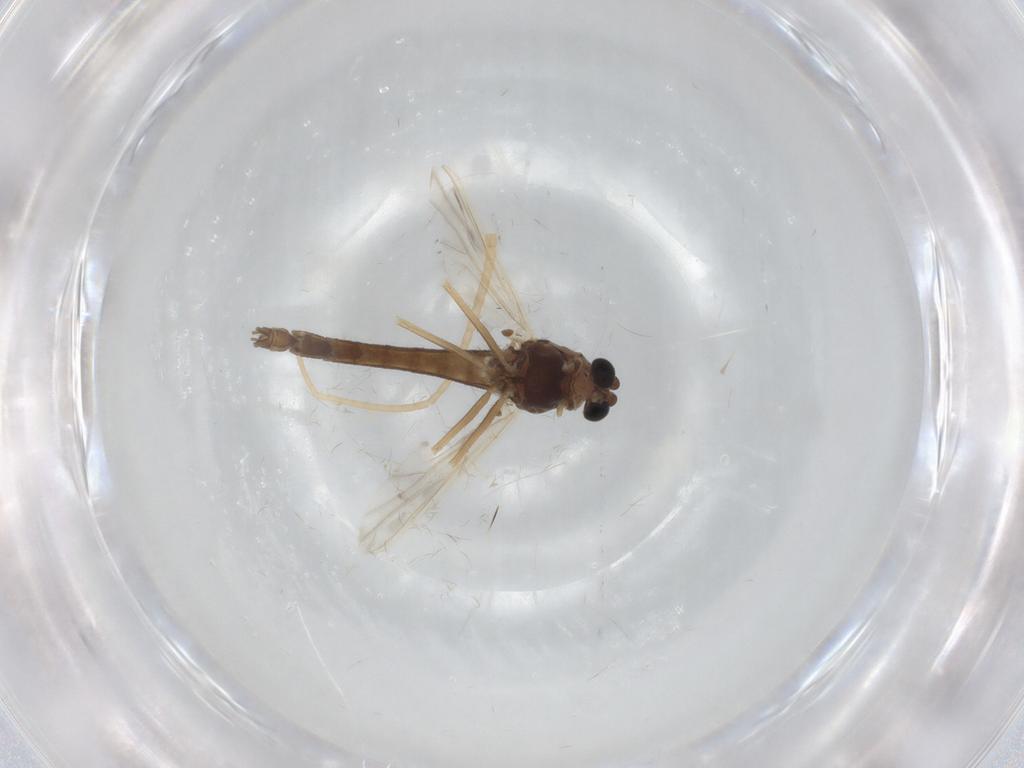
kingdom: Animalia
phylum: Arthropoda
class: Insecta
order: Diptera
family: Chironomidae
